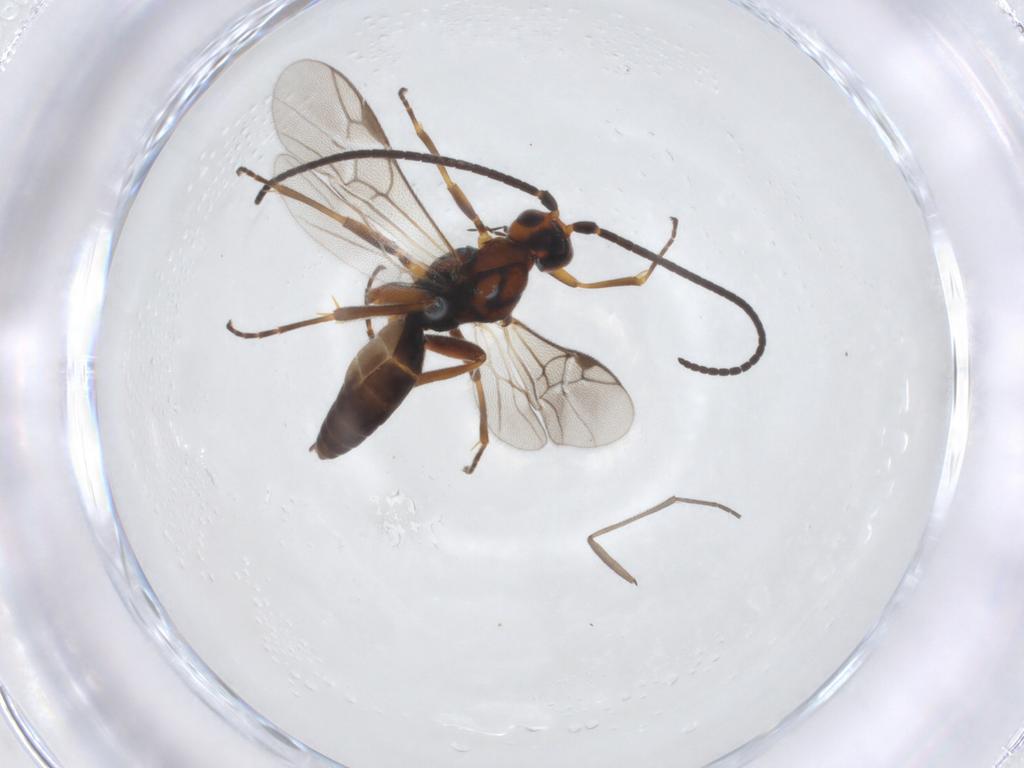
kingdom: Animalia
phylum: Arthropoda
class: Insecta
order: Hymenoptera
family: Braconidae
